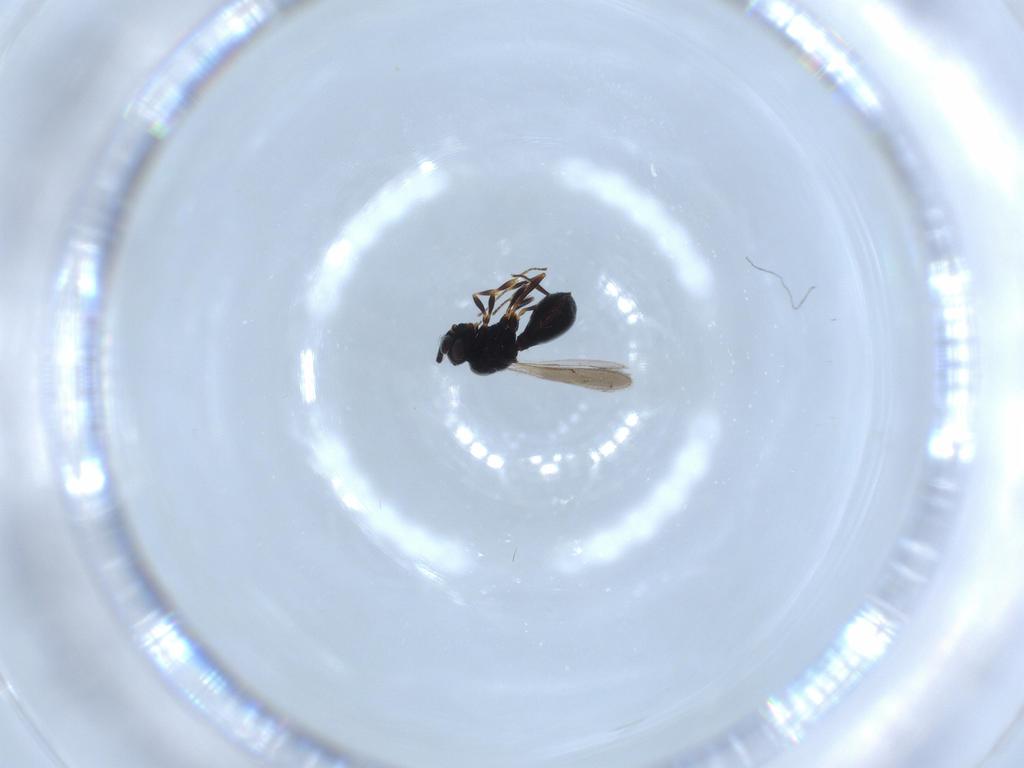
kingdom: Animalia
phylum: Arthropoda
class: Insecta
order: Hymenoptera
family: Scelionidae
